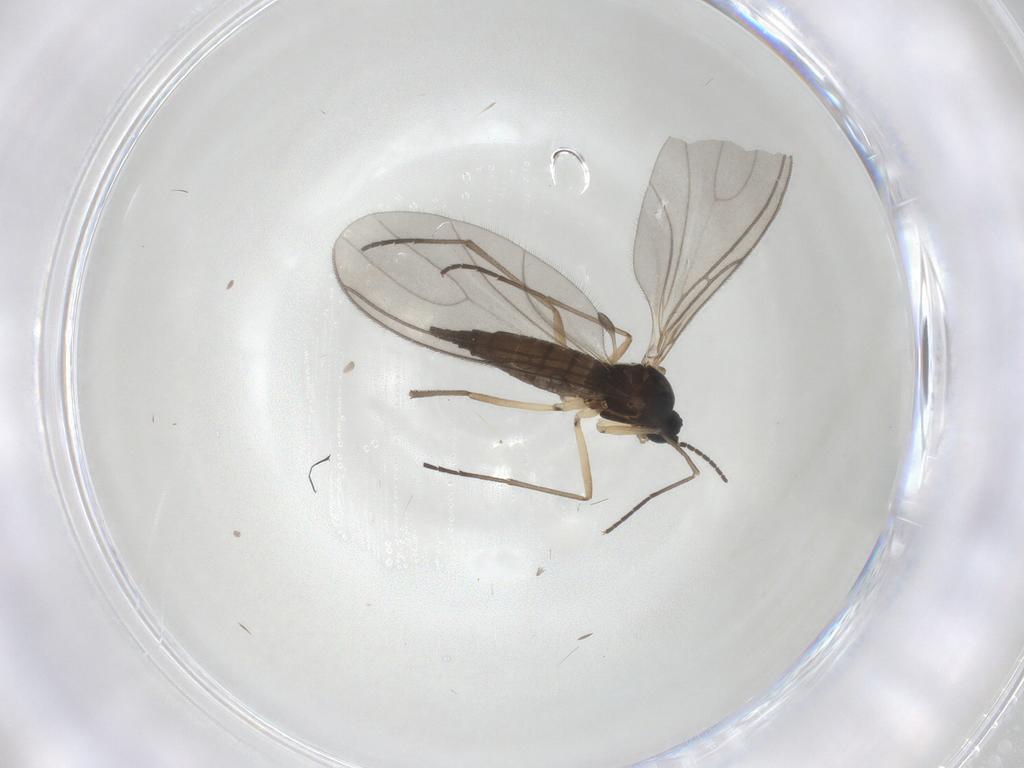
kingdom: Animalia
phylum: Arthropoda
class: Insecta
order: Diptera
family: Sciaridae
